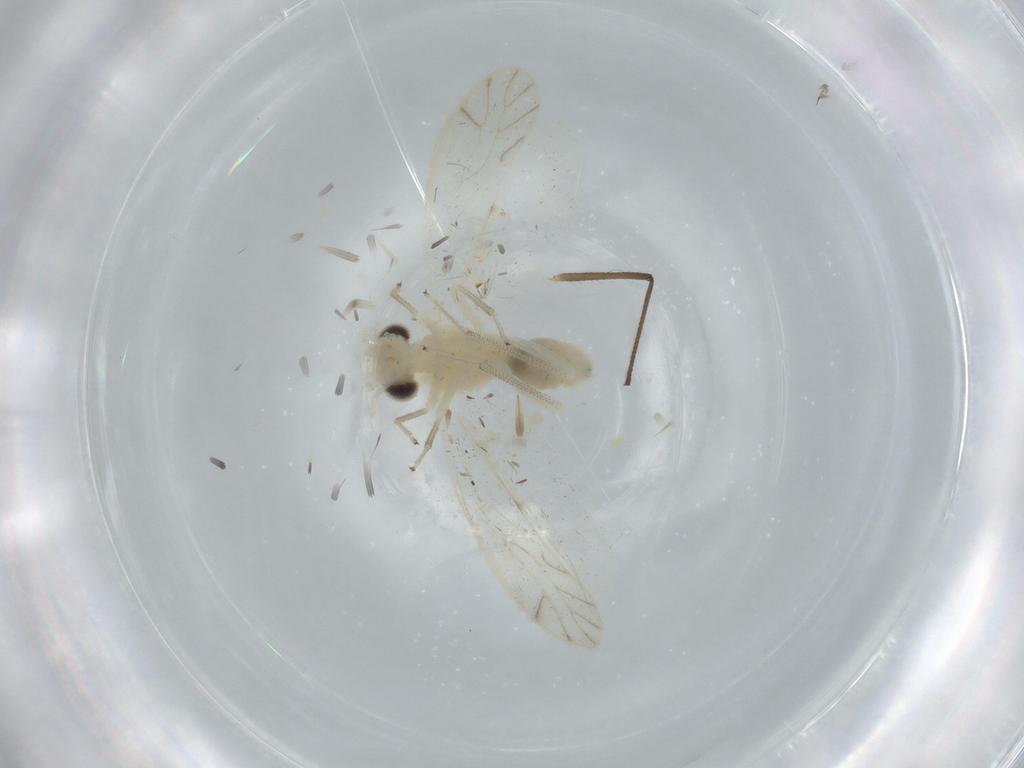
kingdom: Animalia
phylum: Arthropoda
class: Insecta
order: Psocodea
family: Caeciliusidae
